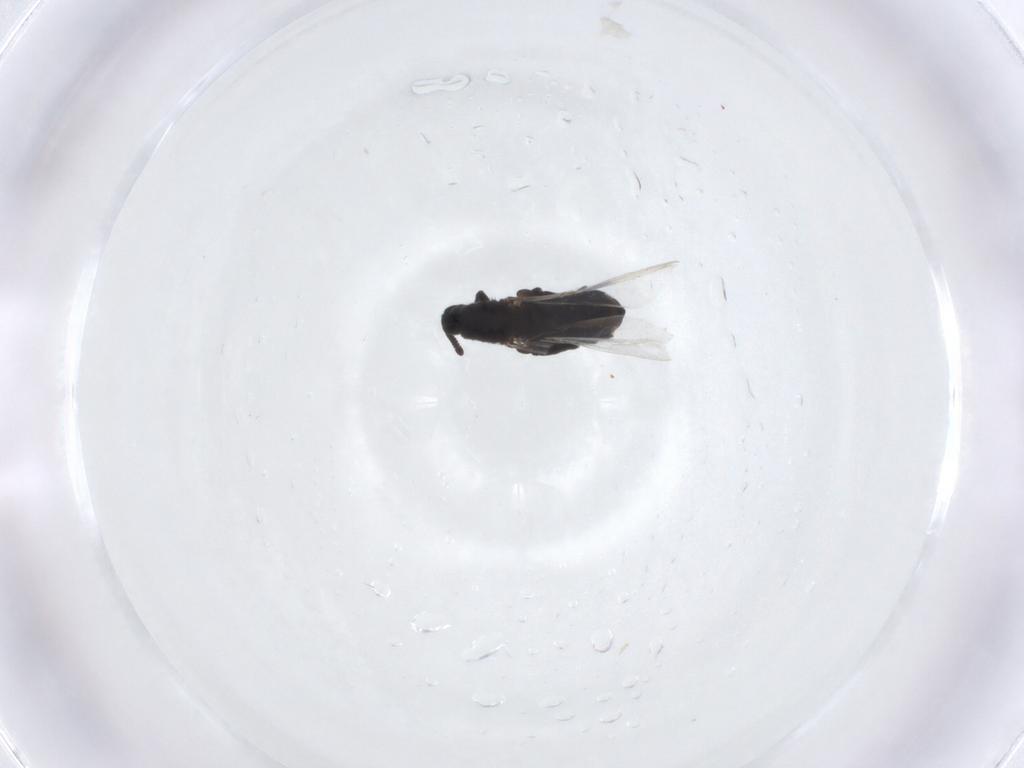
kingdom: Animalia
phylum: Arthropoda
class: Insecta
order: Diptera
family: Scatopsidae
